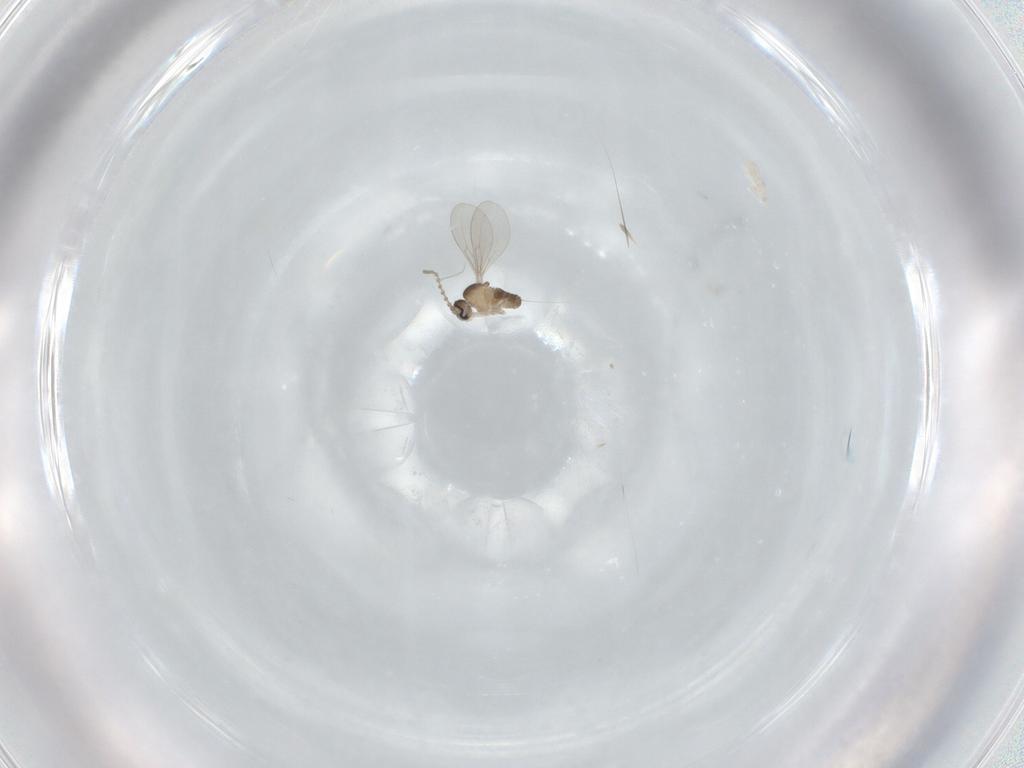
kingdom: Animalia
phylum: Arthropoda
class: Insecta
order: Diptera
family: Cecidomyiidae
